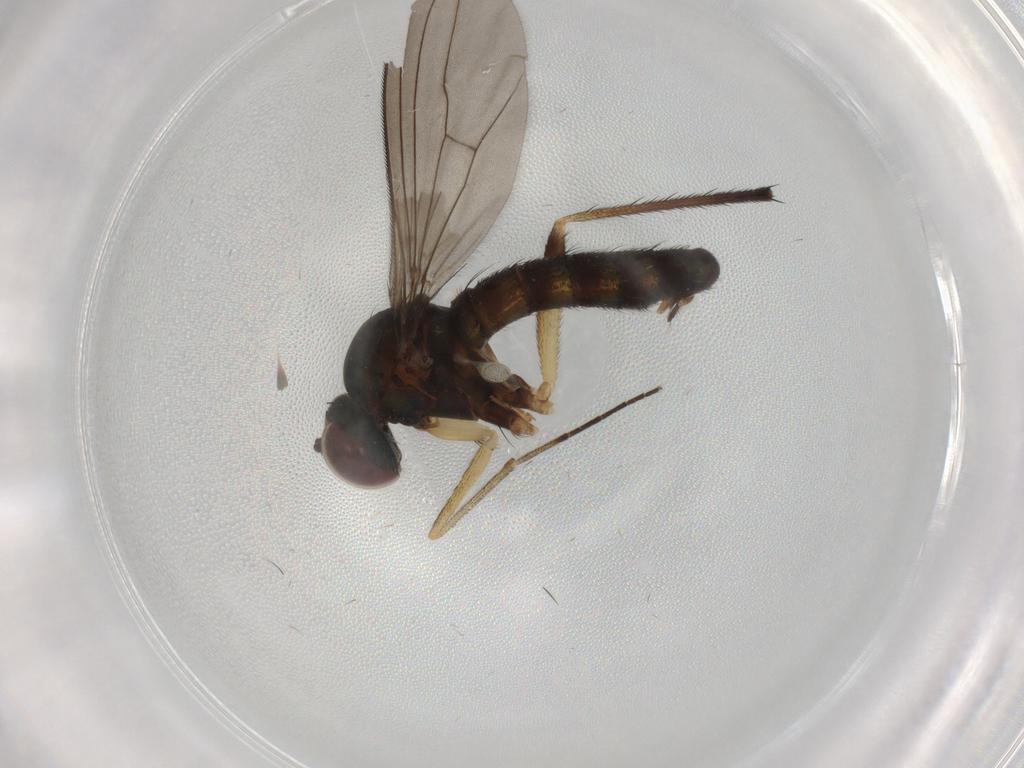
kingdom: Animalia
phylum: Arthropoda
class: Insecta
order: Diptera
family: Dolichopodidae
